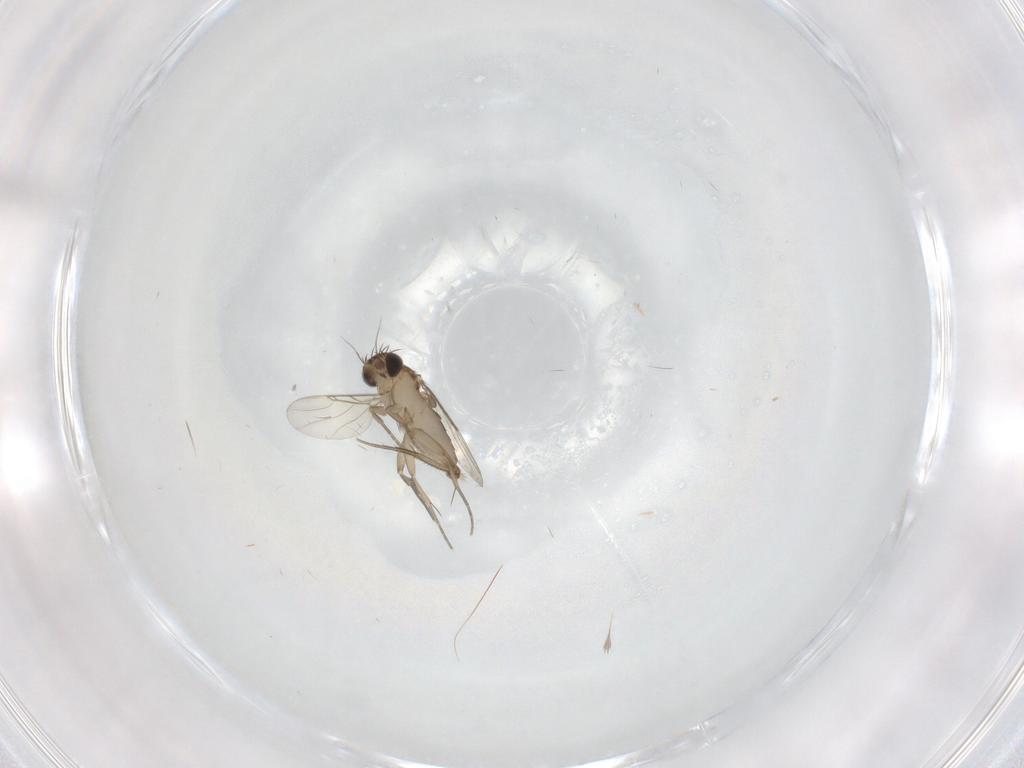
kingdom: Animalia
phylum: Arthropoda
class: Insecta
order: Diptera
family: Phoridae
